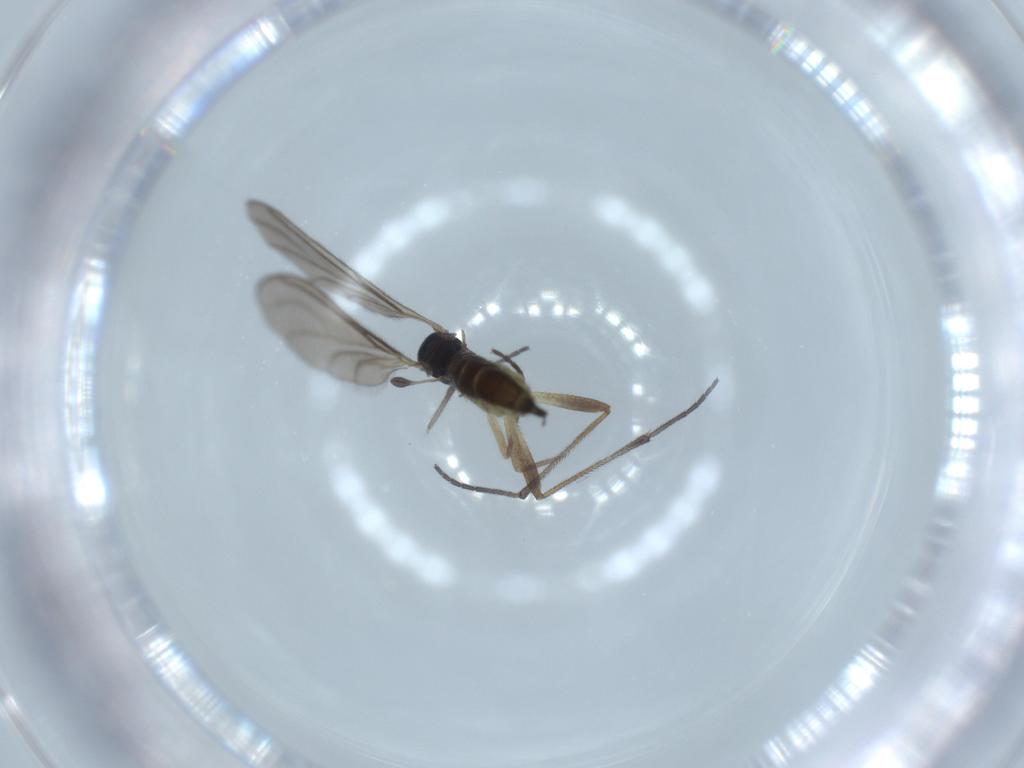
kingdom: Animalia
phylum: Arthropoda
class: Insecta
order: Diptera
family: Sciaridae
